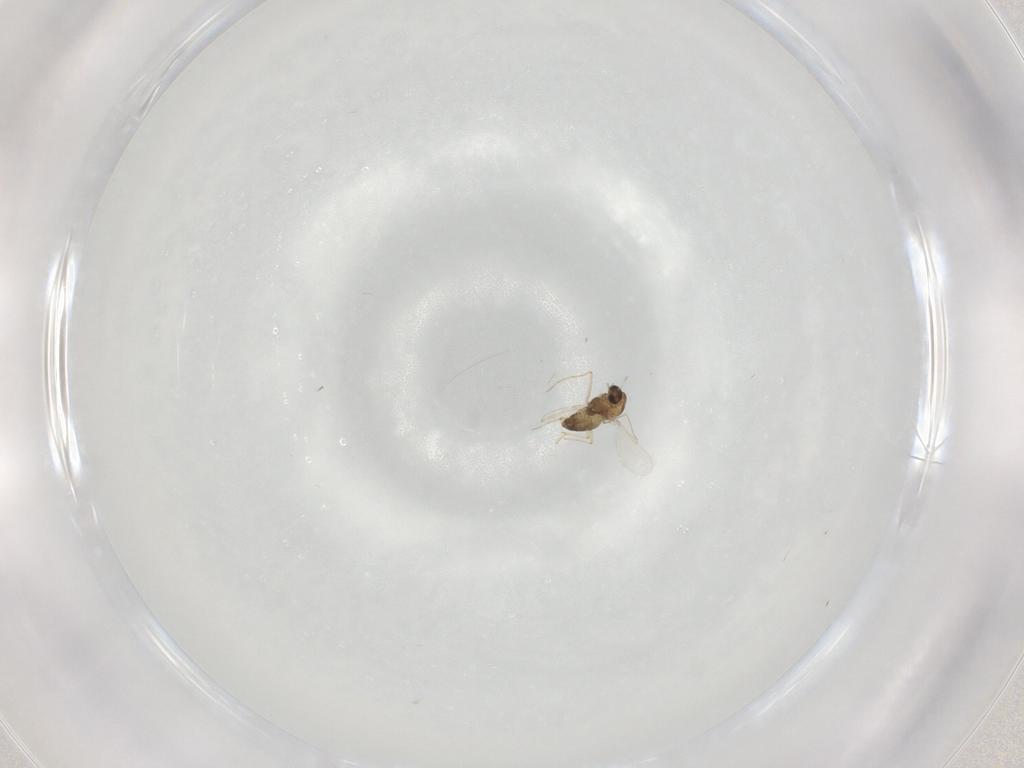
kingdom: Animalia
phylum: Arthropoda
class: Insecta
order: Diptera
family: Chironomidae
